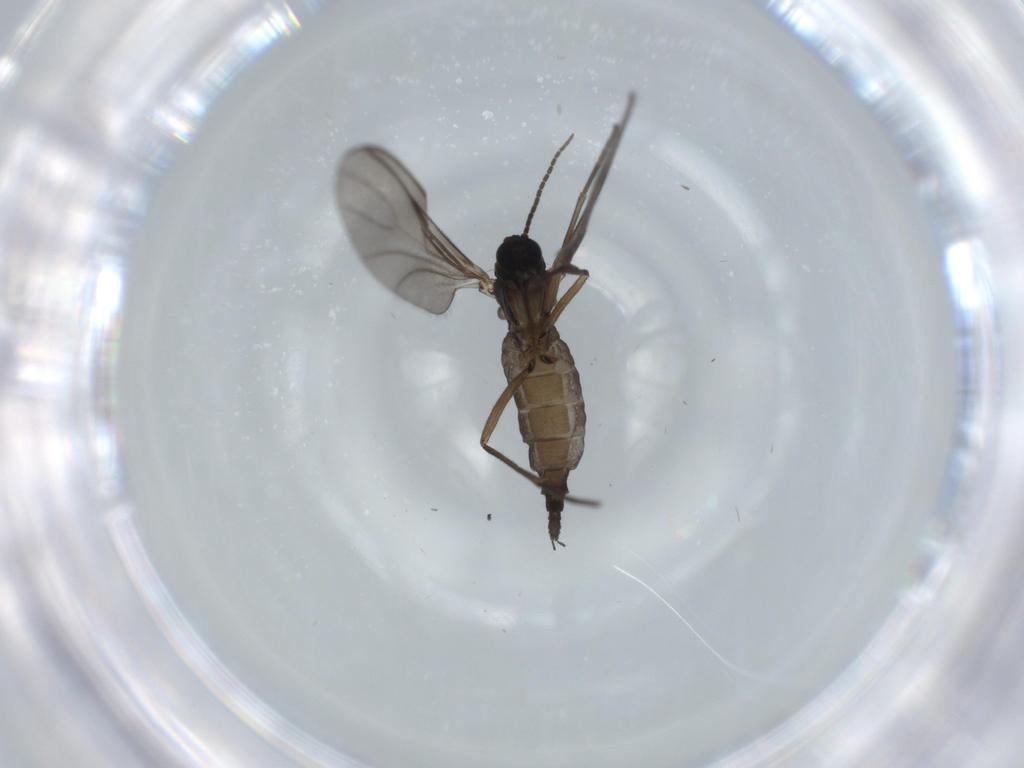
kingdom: Animalia
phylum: Arthropoda
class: Insecta
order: Diptera
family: Sciaridae
